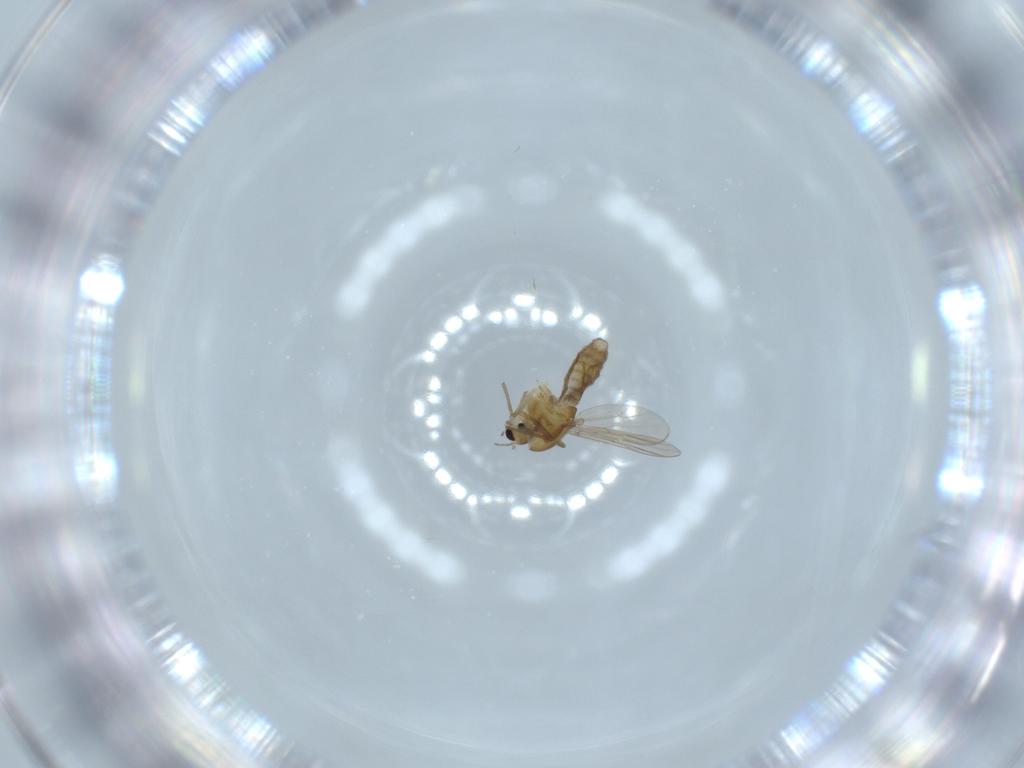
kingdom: Animalia
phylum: Arthropoda
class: Insecta
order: Diptera
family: Chironomidae
